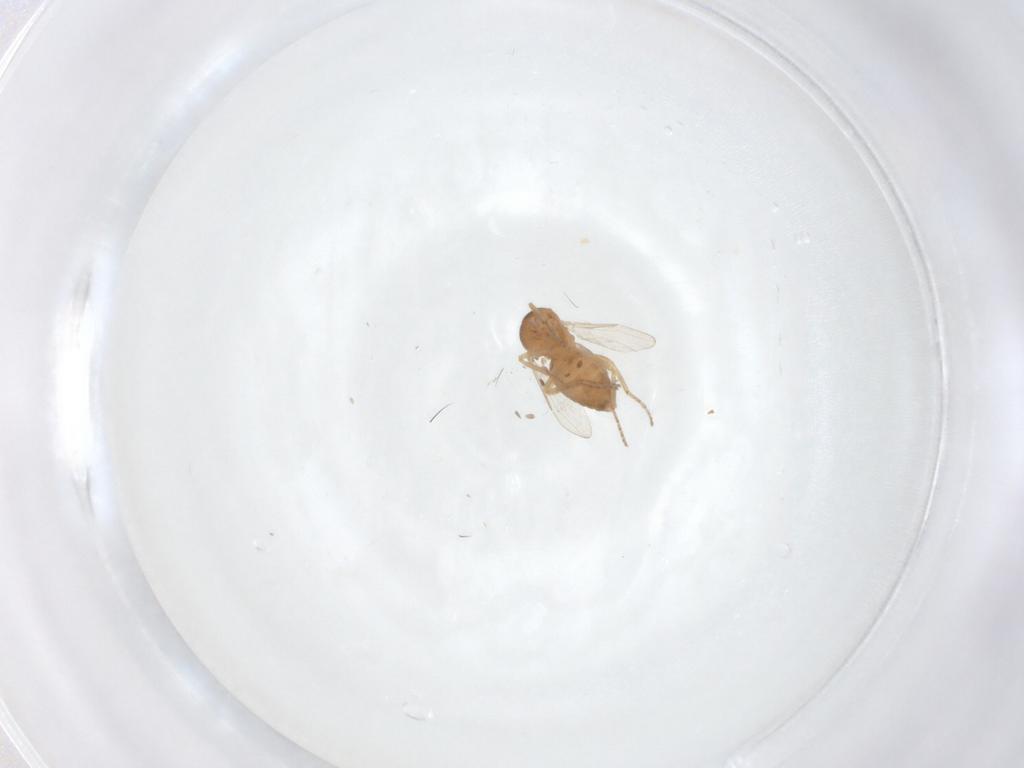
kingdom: Animalia
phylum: Arthropoda
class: Insecta
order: Diptera
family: Ceratopogonidae
